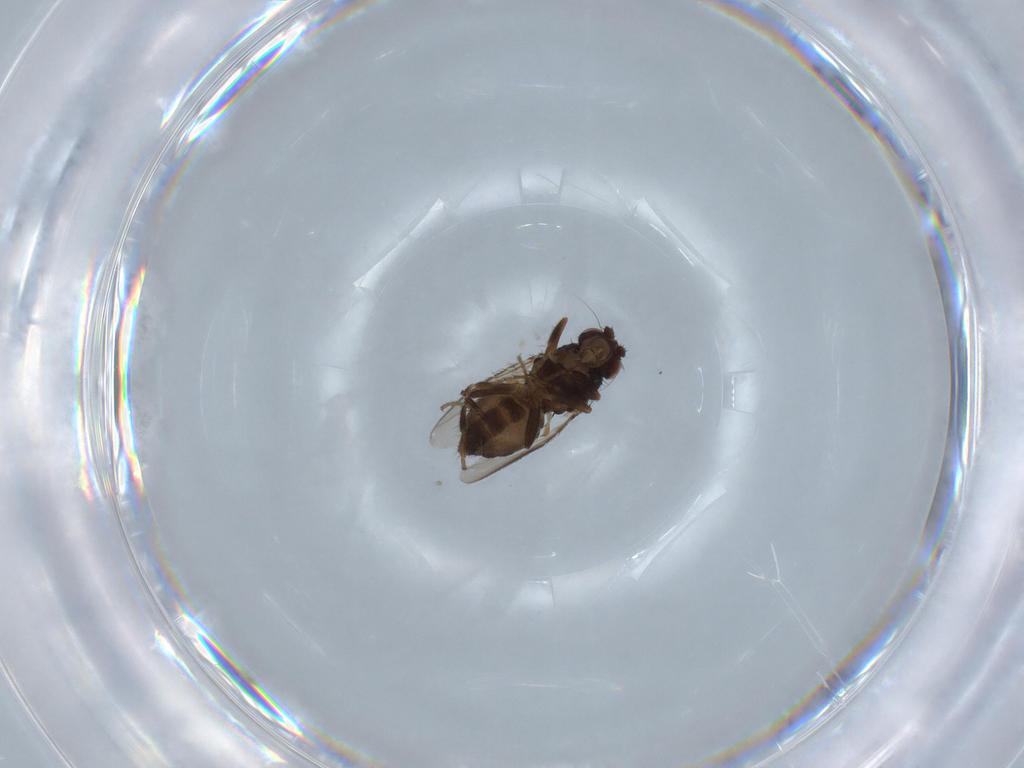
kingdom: Animalia
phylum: Arthropoda
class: Insecta
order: Diptera
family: Sphaeroceridae
